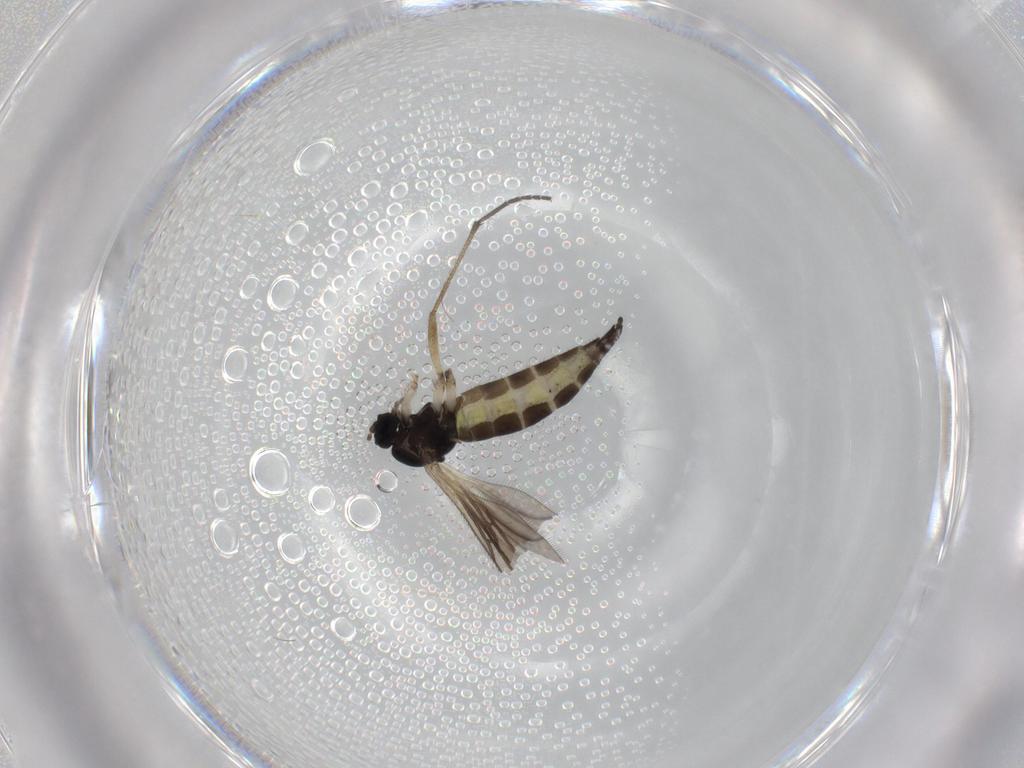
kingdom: Animalia
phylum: Arthropoda
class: Insecta
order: Diptera
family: Sciaridae
